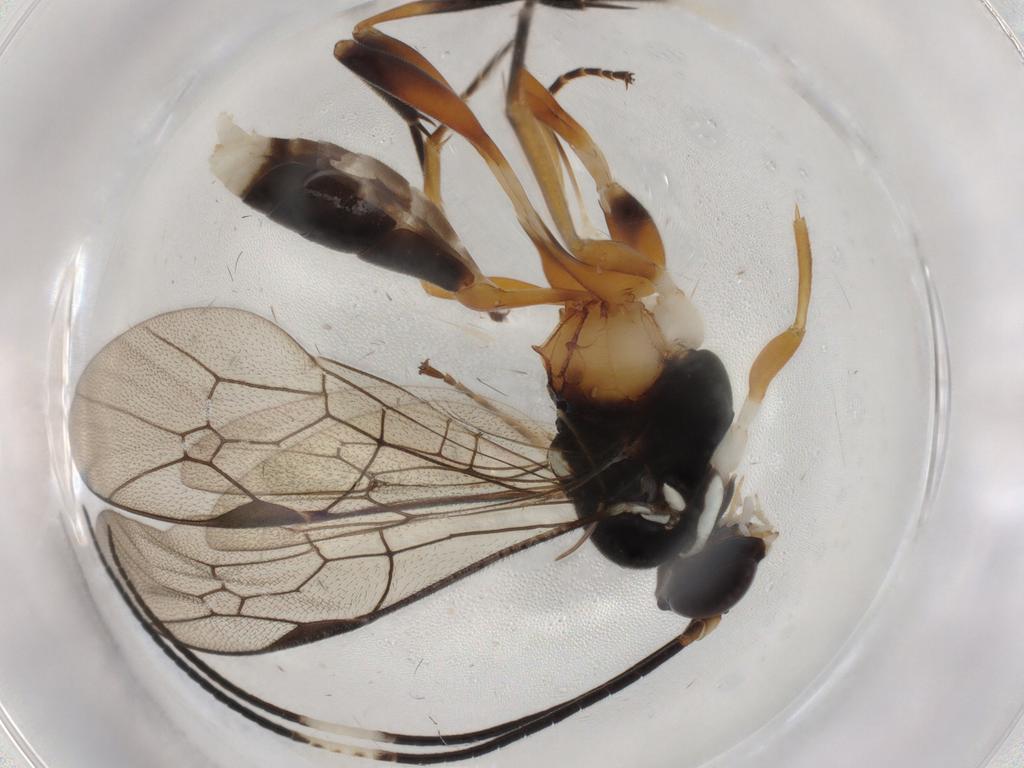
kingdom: Animalia
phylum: Arthropoda
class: Insecta
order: Hymenoptera
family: Ichneumonidae
